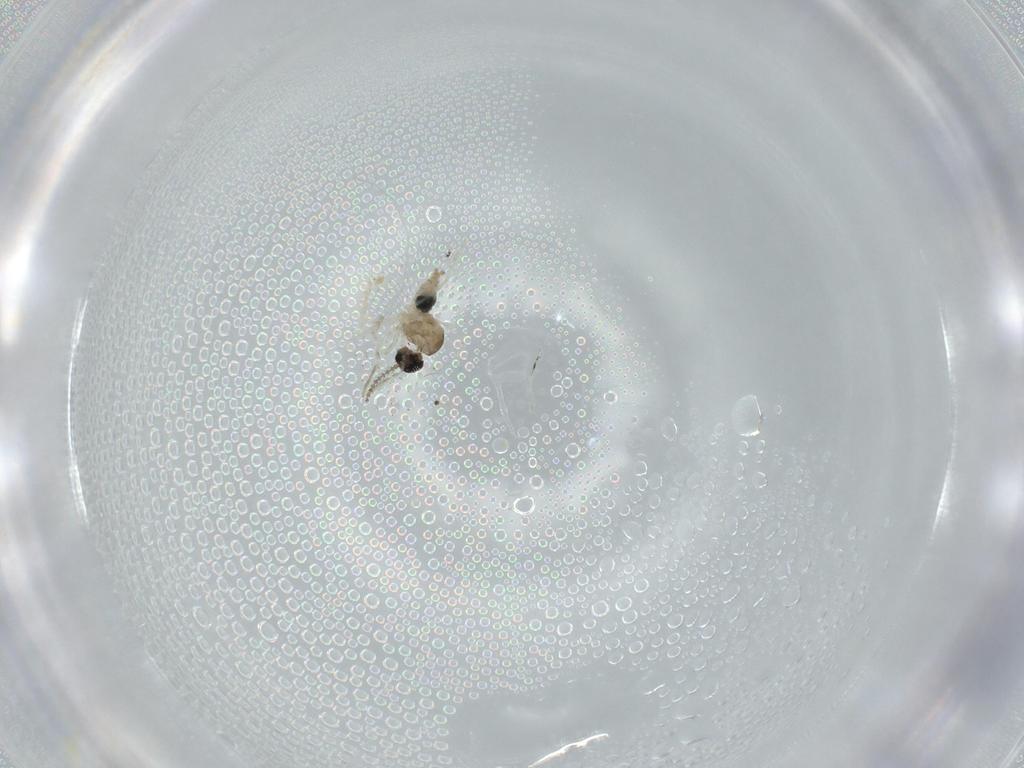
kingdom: Animalia
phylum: Arthropoda
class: Insecta
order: Diptera
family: Cecidomyiidae
